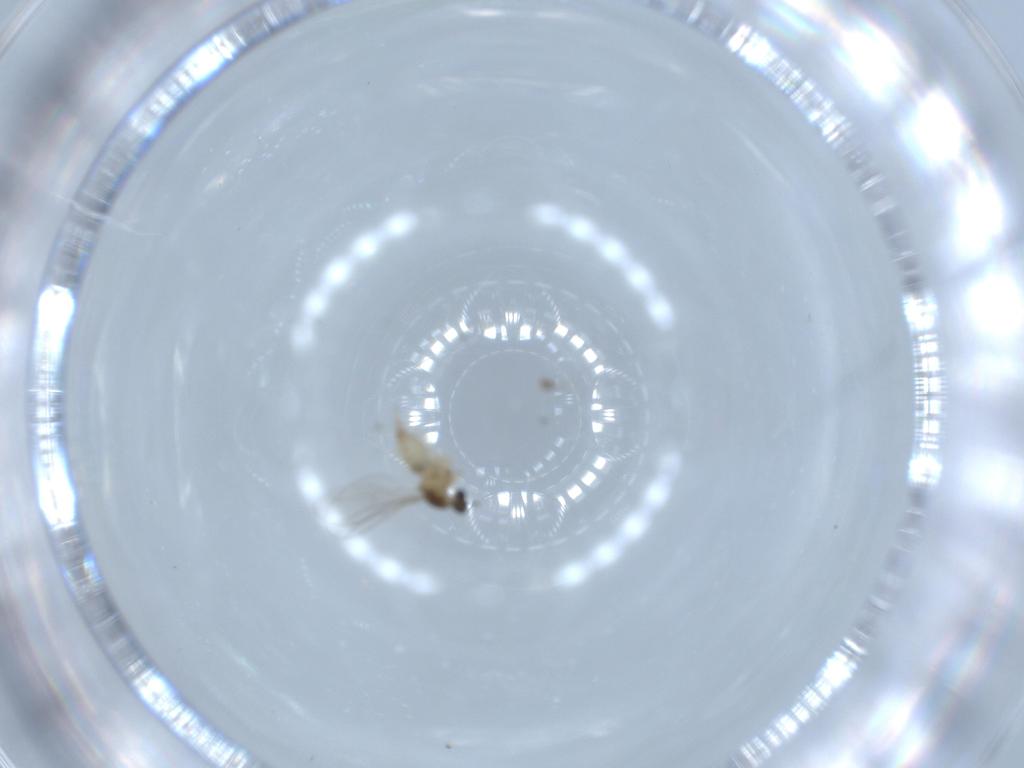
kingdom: Animalia
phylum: Arthropoda
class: Insecta
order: Diptera
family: Cecidomyiidae
